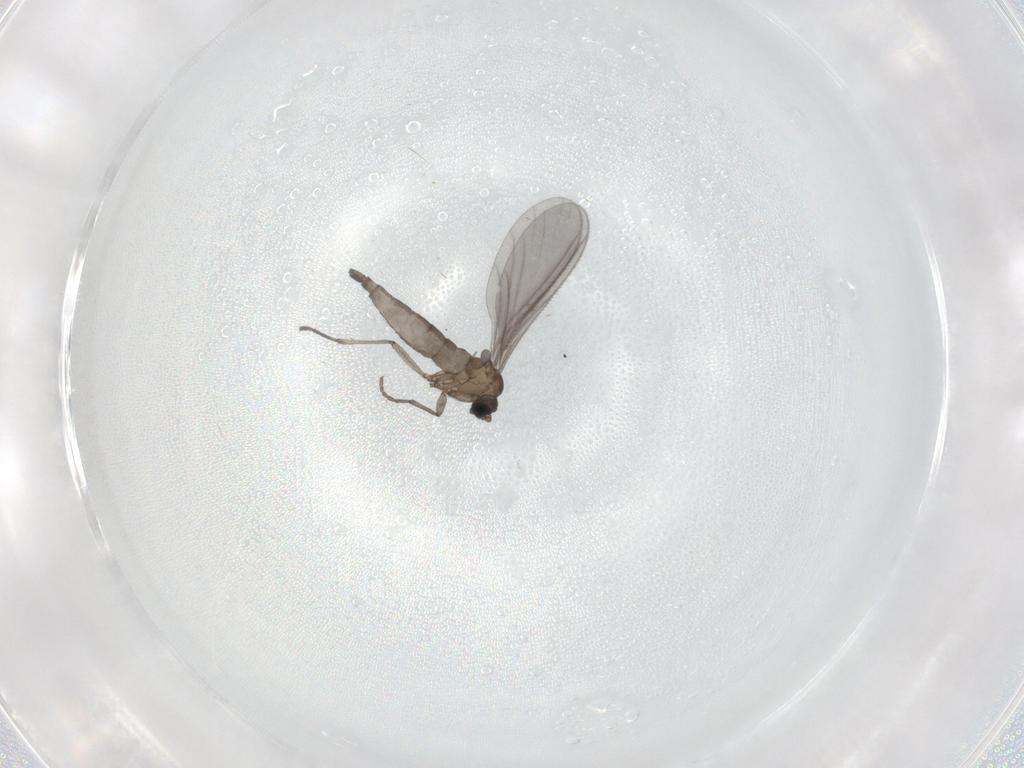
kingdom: Animalia
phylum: Arthropoda
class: Insecta
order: Diptera
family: Sciaridae
